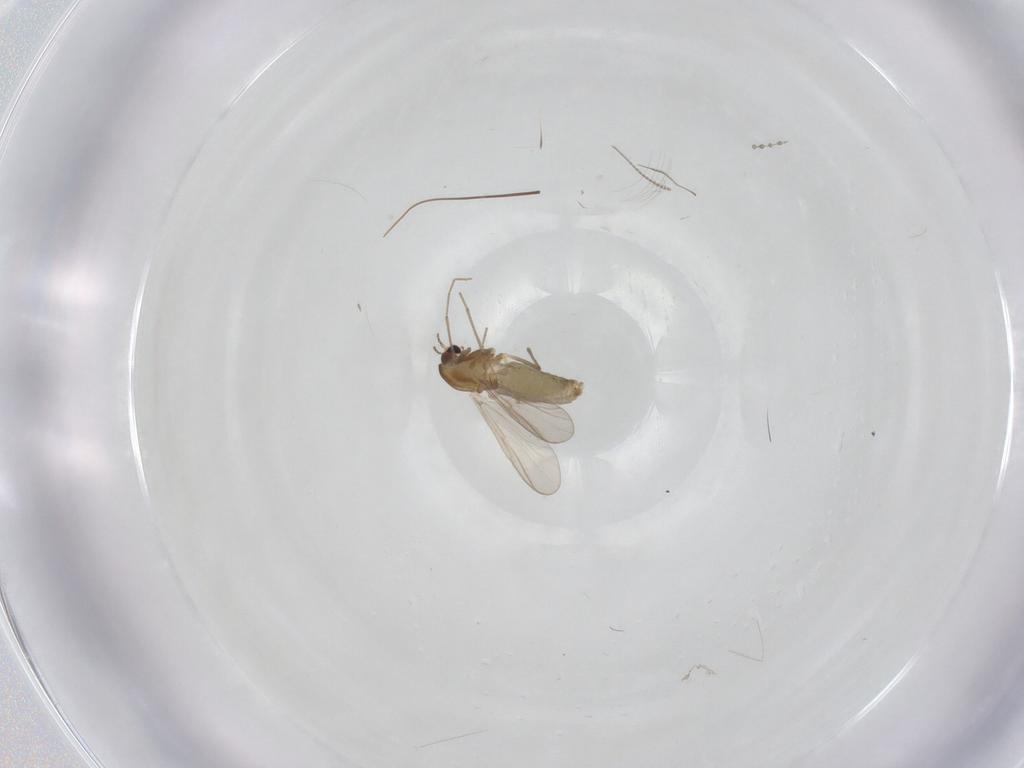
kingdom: Animalia
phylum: Arthropoda
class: Insecta
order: Diptera
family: Chironomidae
